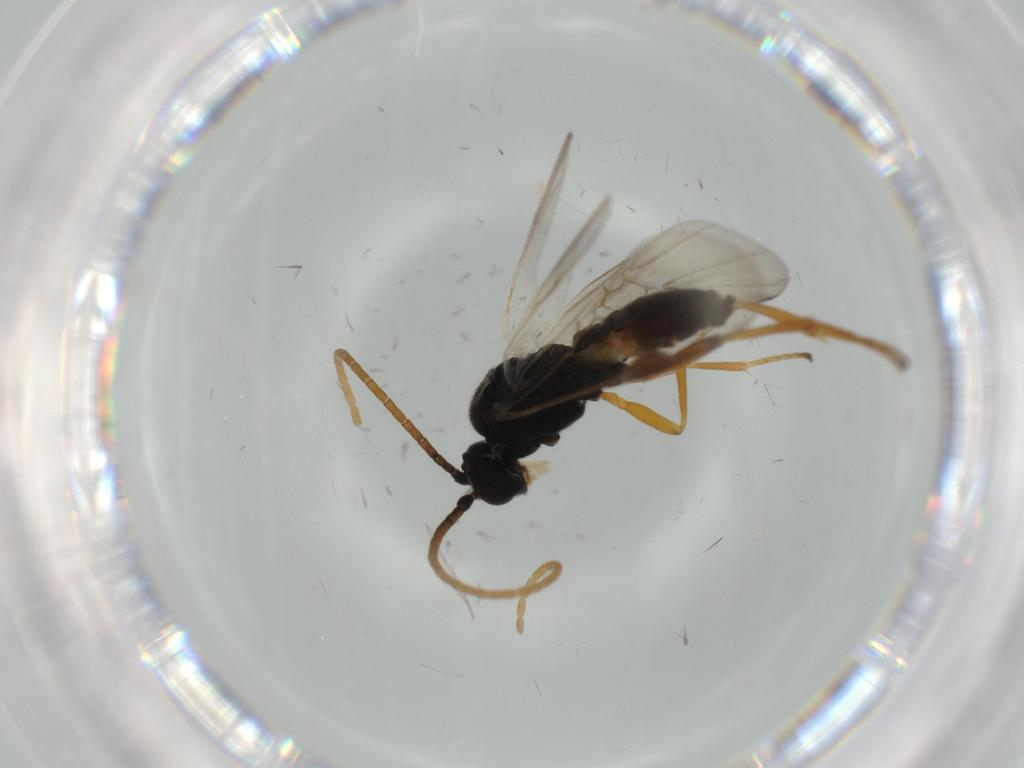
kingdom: Animalia
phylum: Arthropoda
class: Insecta
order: Hymenoptera
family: Braconidae
